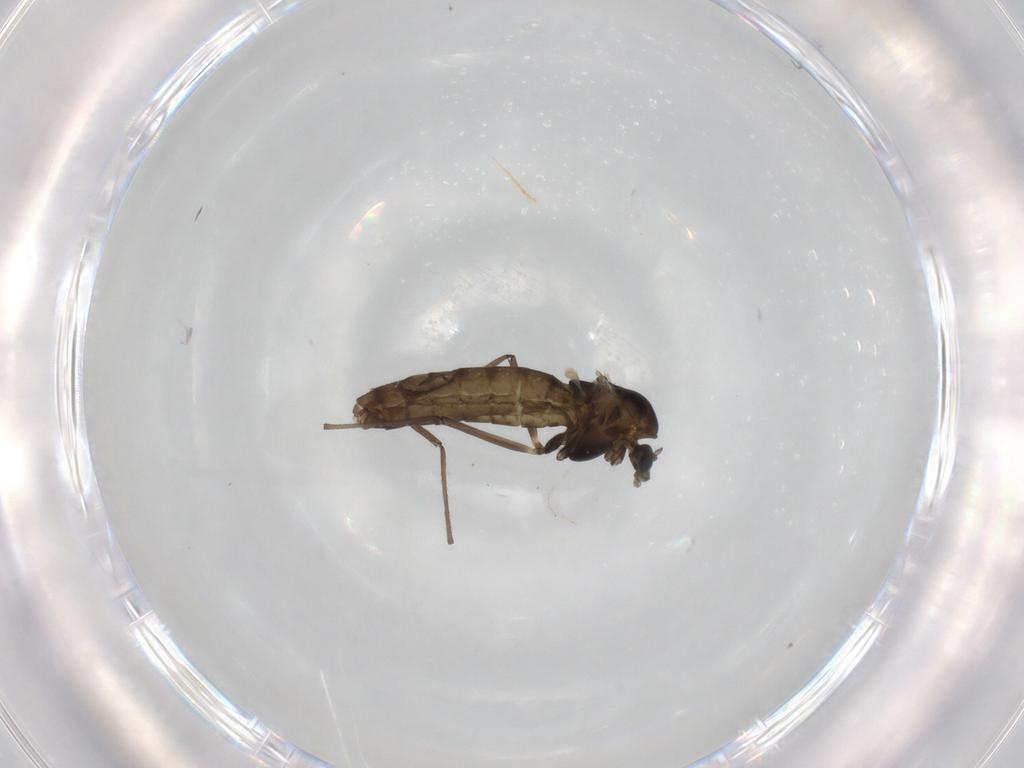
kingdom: Animalia
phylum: Arthropoda
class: Insecta
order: Diptera
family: Chironomidae
